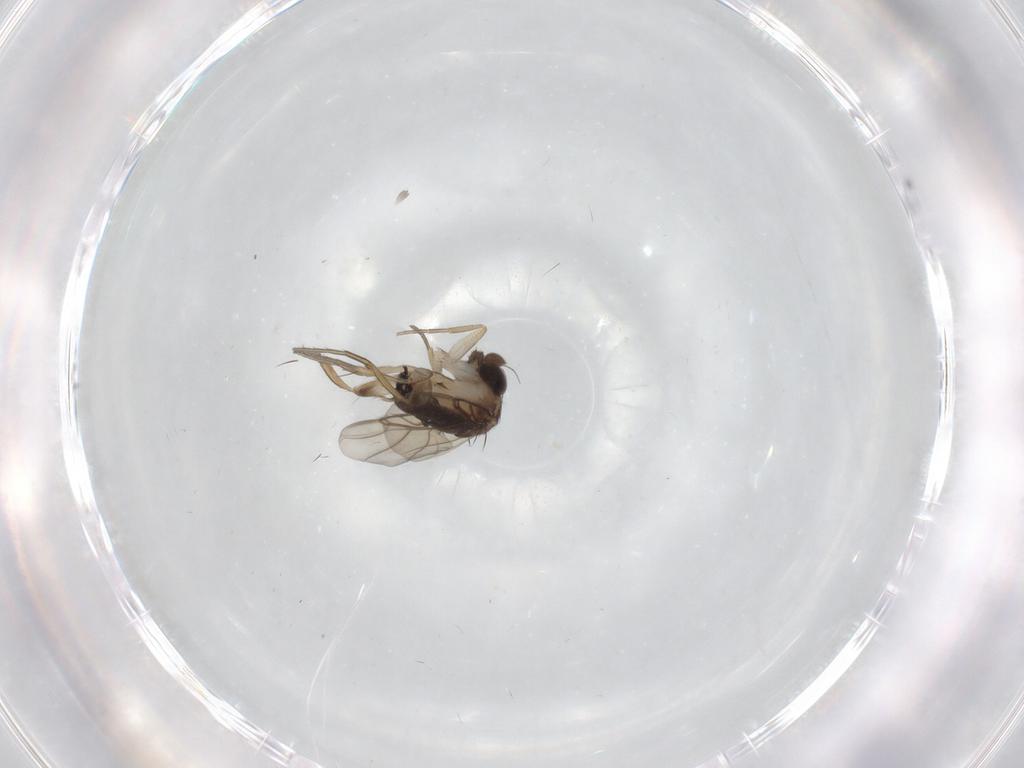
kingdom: Animalia
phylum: Arthropoda
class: Insecta
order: Diptera
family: Phoridae
